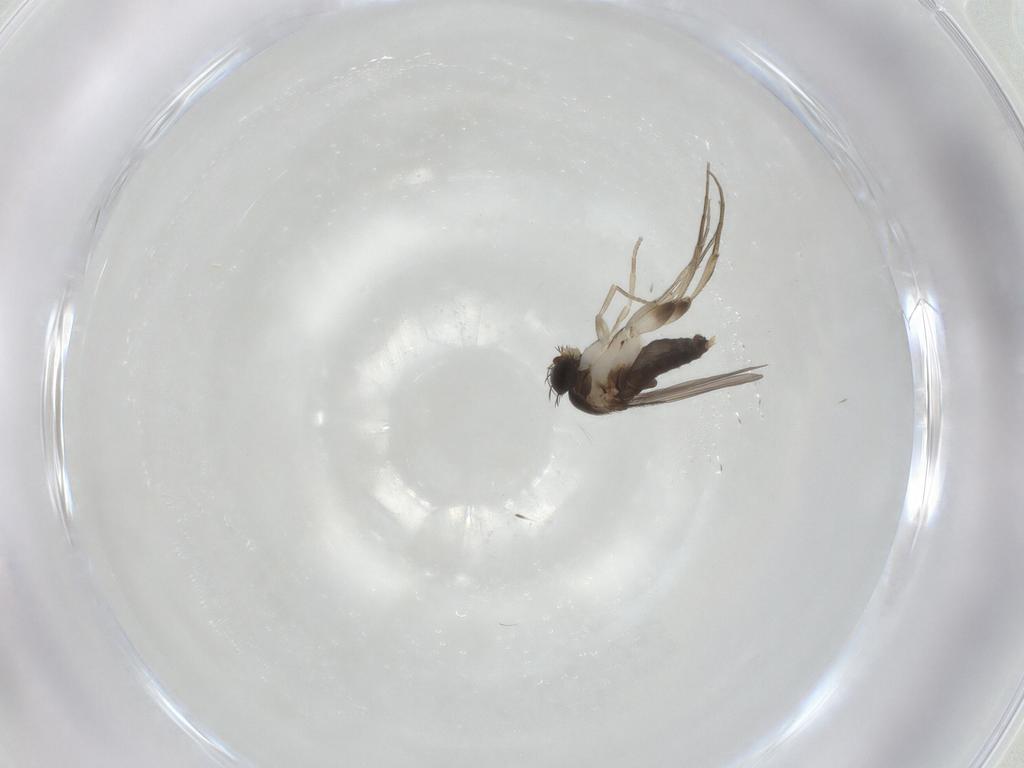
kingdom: Animalia
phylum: Arthropoda
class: Insecta
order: Diptera
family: Phoridae
